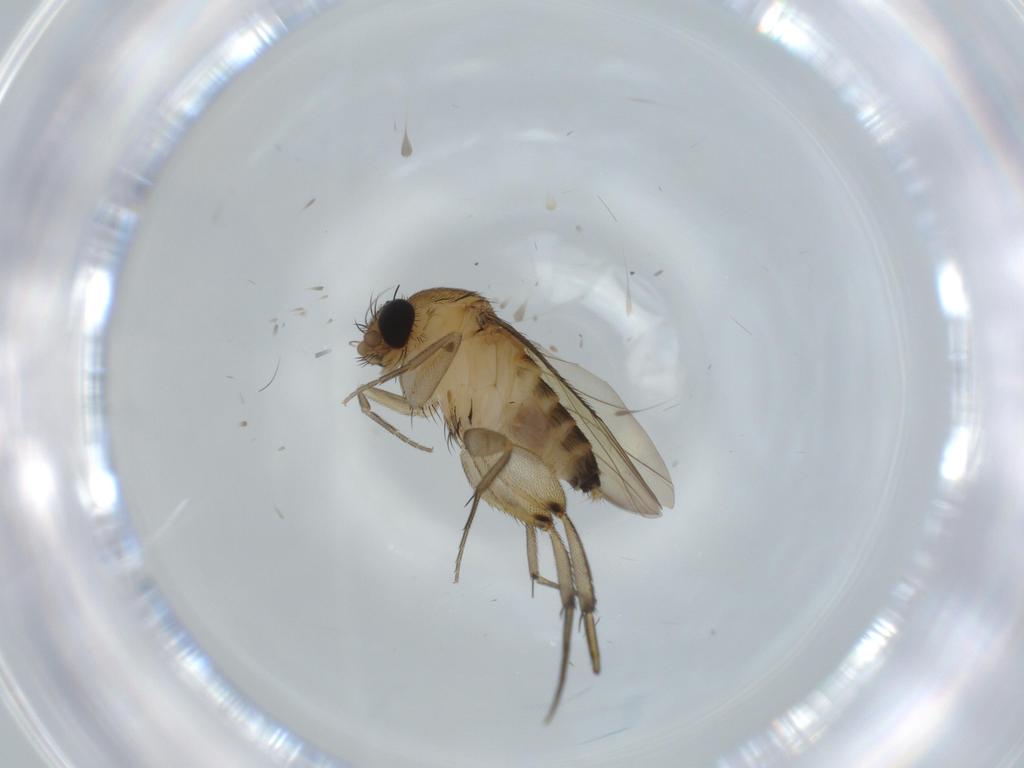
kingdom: Animalia
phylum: Arthropoda
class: Insecta
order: Diptera
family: Phoridae
